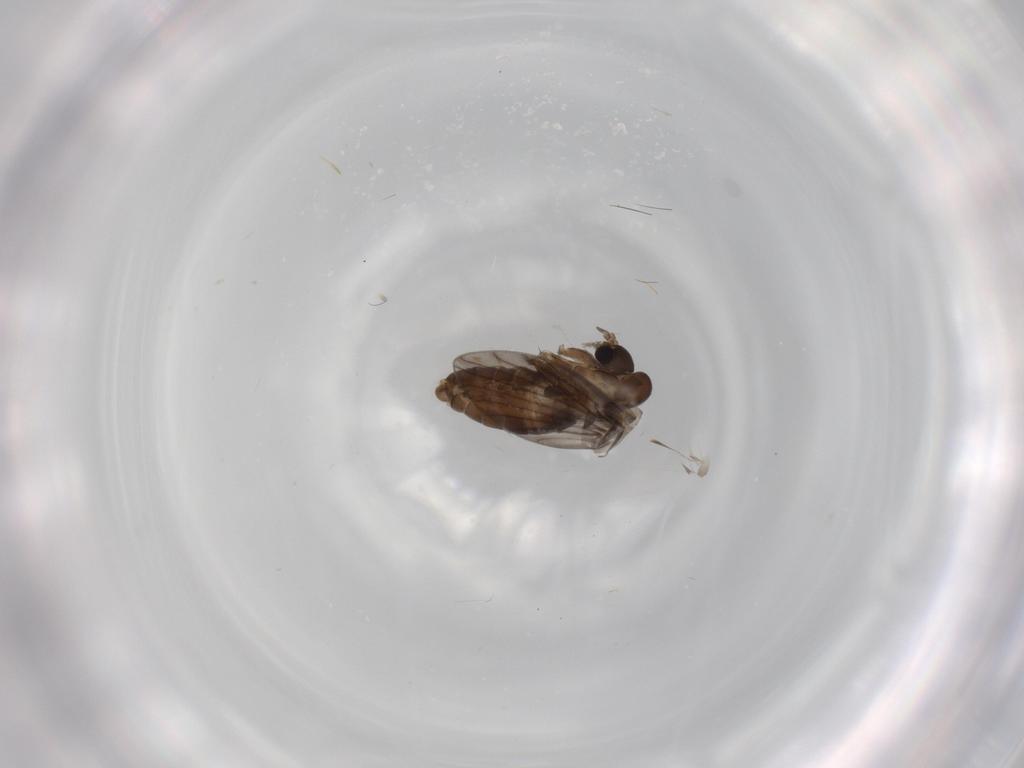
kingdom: Animalia
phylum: Arthropoda
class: Insecta
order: Diptera
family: Psychodidae
